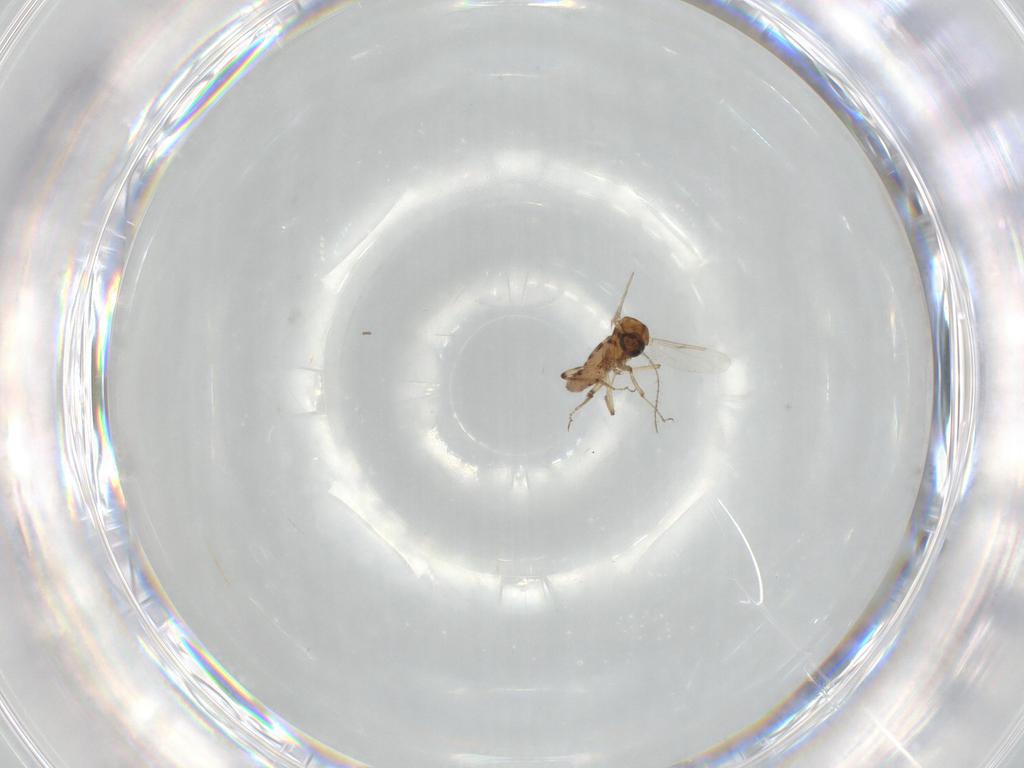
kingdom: Animalia
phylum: Arthropoda
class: Insecta
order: Diptera
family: Ceratopogonidae
